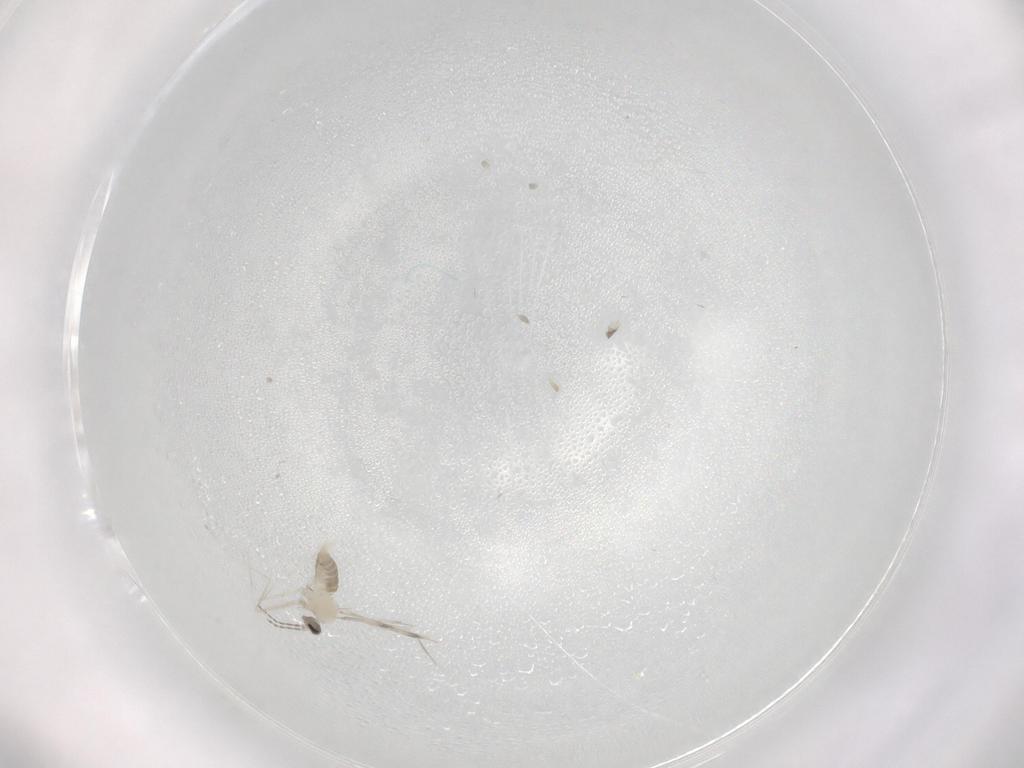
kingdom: Animalia
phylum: Arthropoda
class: Insecta
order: Diptera
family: Cecidomyiidae
